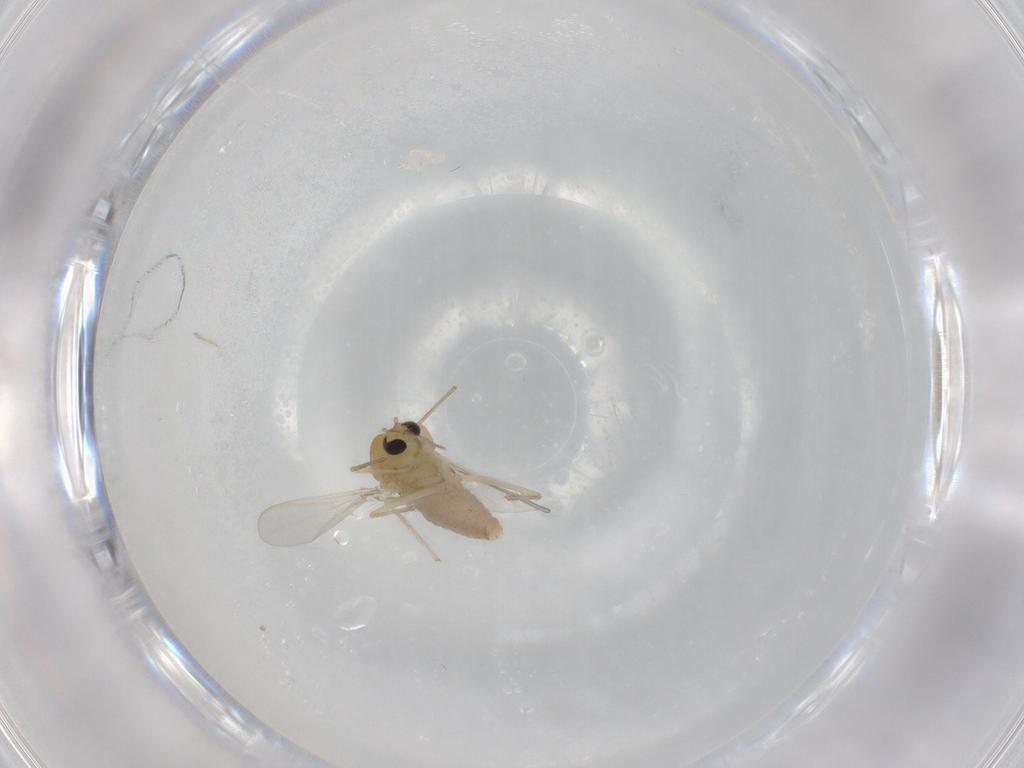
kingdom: Animalia
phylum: Arthropoda
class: Insecta
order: Diptera
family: Chironomidae
